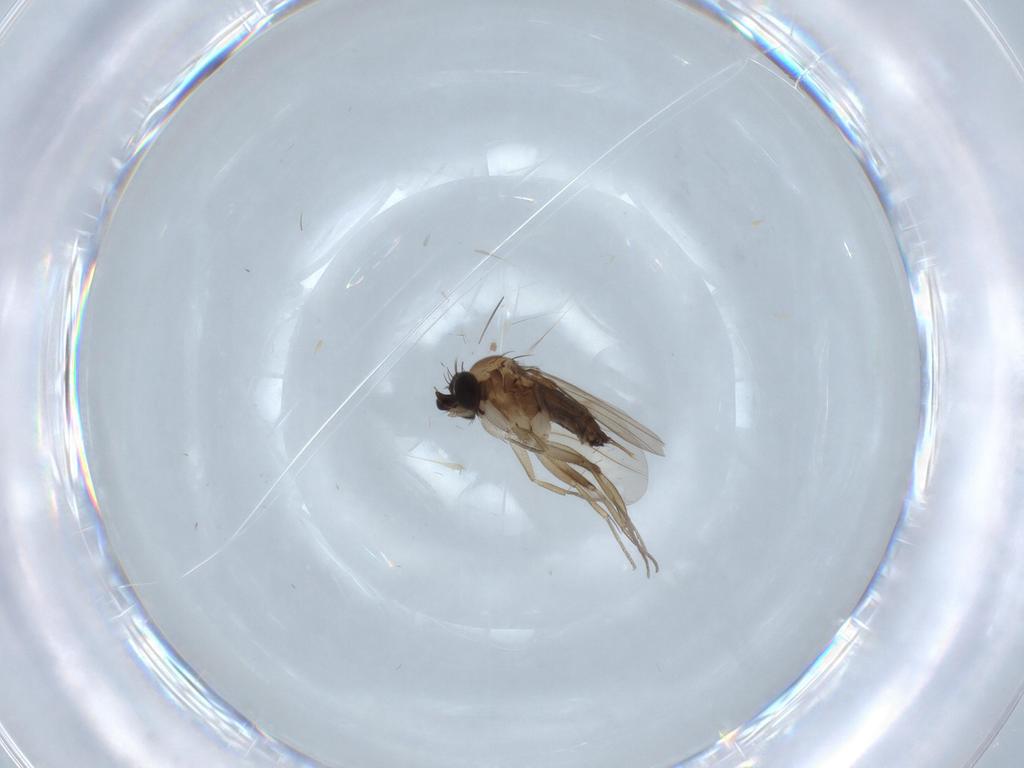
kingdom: Animalia
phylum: Arthropoda
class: Insecta
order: Diptera
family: Phoridae
